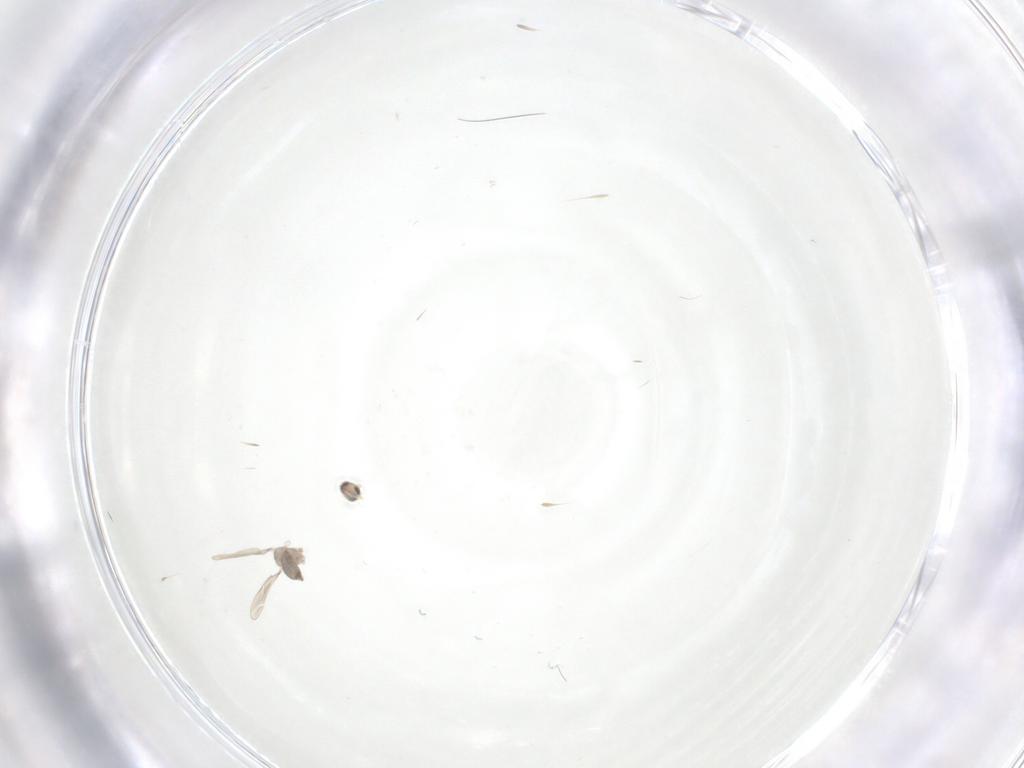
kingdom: Animalia
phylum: Arthropoda
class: Insecta
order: Diptera
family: Cecidomyiidae
